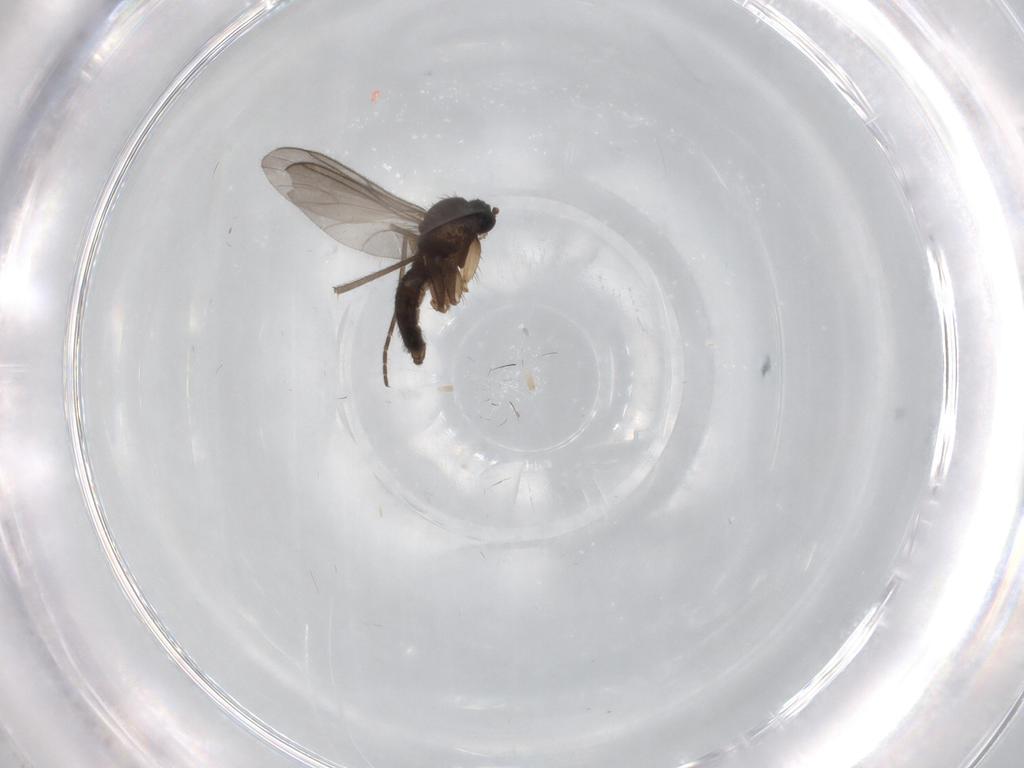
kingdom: Animalia
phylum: Arthropoda
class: Insecta
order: Diptera
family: Sciaridae
